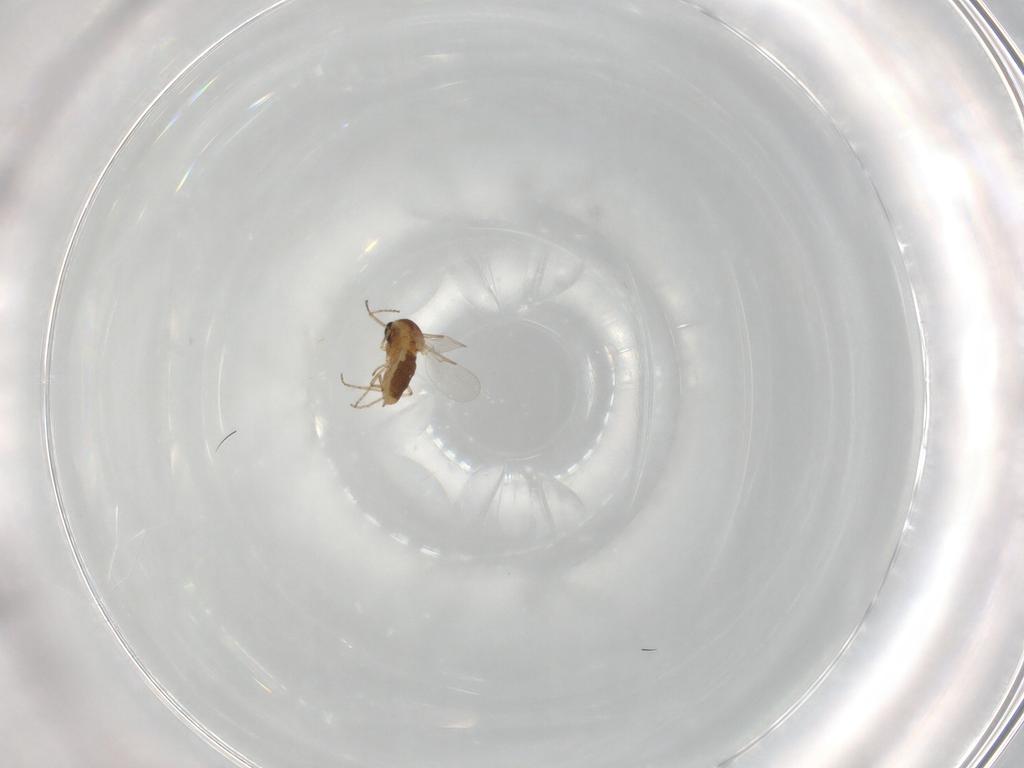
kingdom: Animalia
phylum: Arthropoda
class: Insecta
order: Diptera
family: Ceratopogonidae
